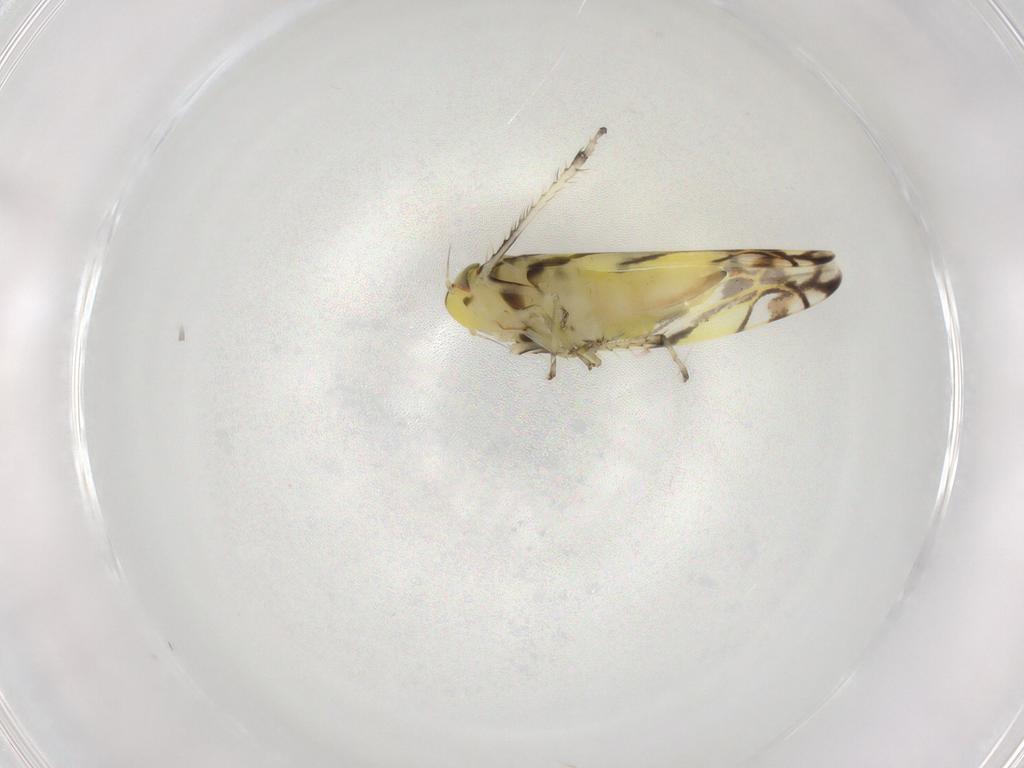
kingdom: Animalia
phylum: Arthropoda
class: Insecta
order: Hemiptera
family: Cicadellidae
